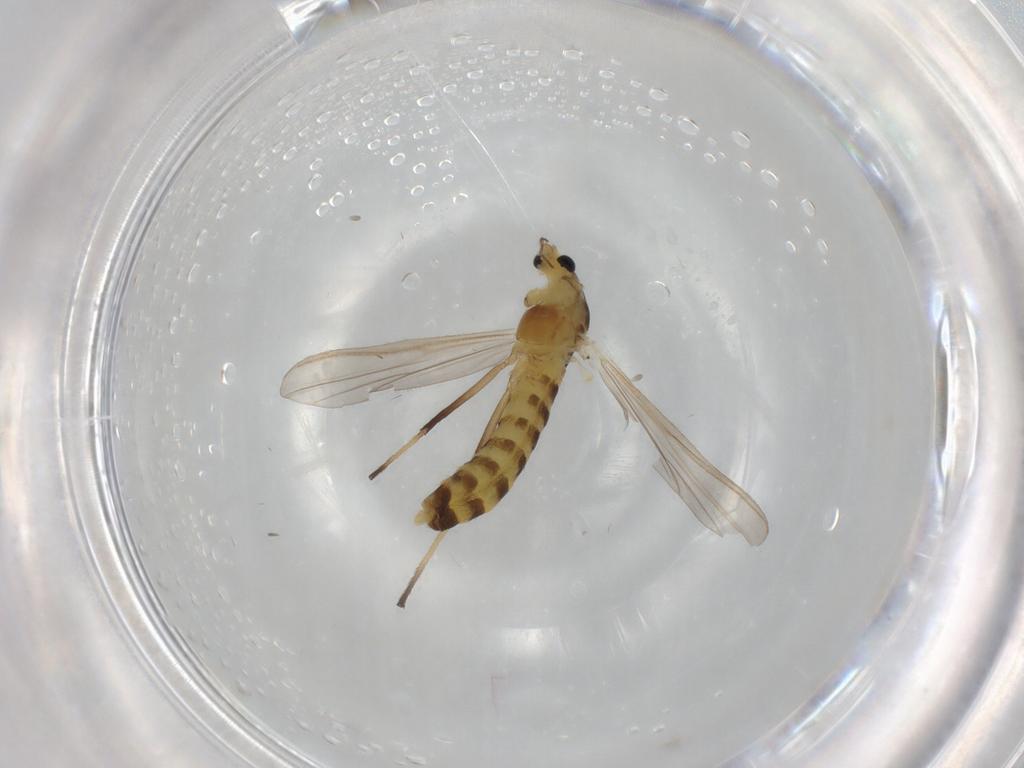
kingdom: Animalia
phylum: Arthropoda
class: Insecta
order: Diptera
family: Chironomidae
